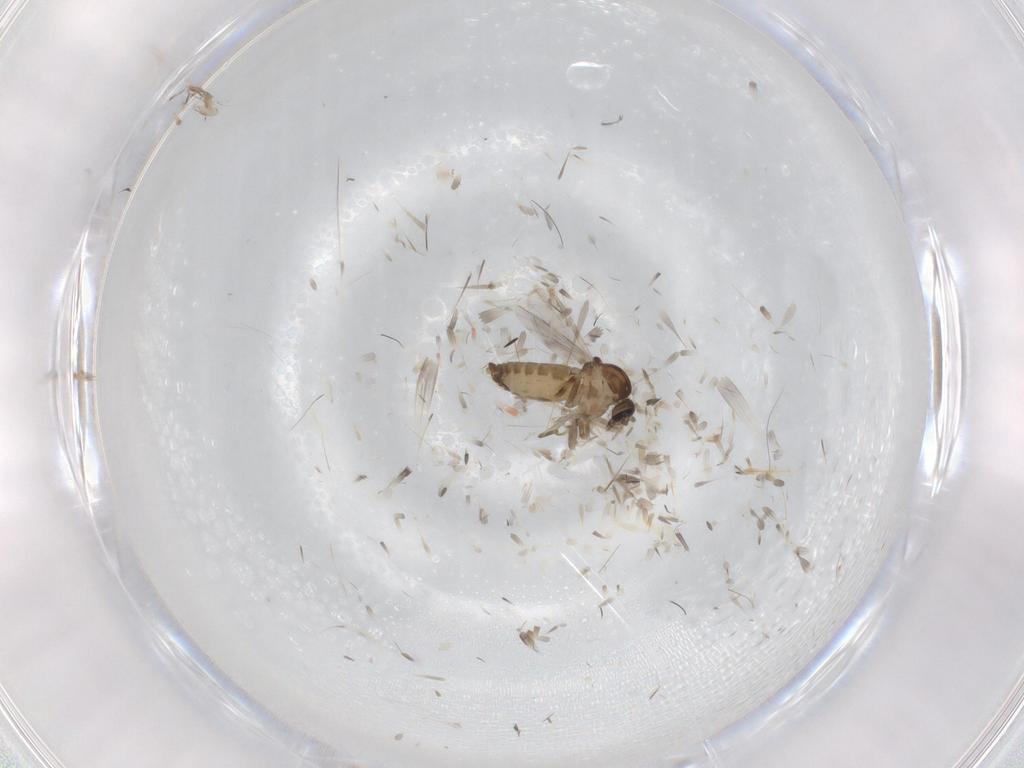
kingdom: Animalia
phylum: Arthropoda
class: Insecta
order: Diptera
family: Ceratopogonidae
